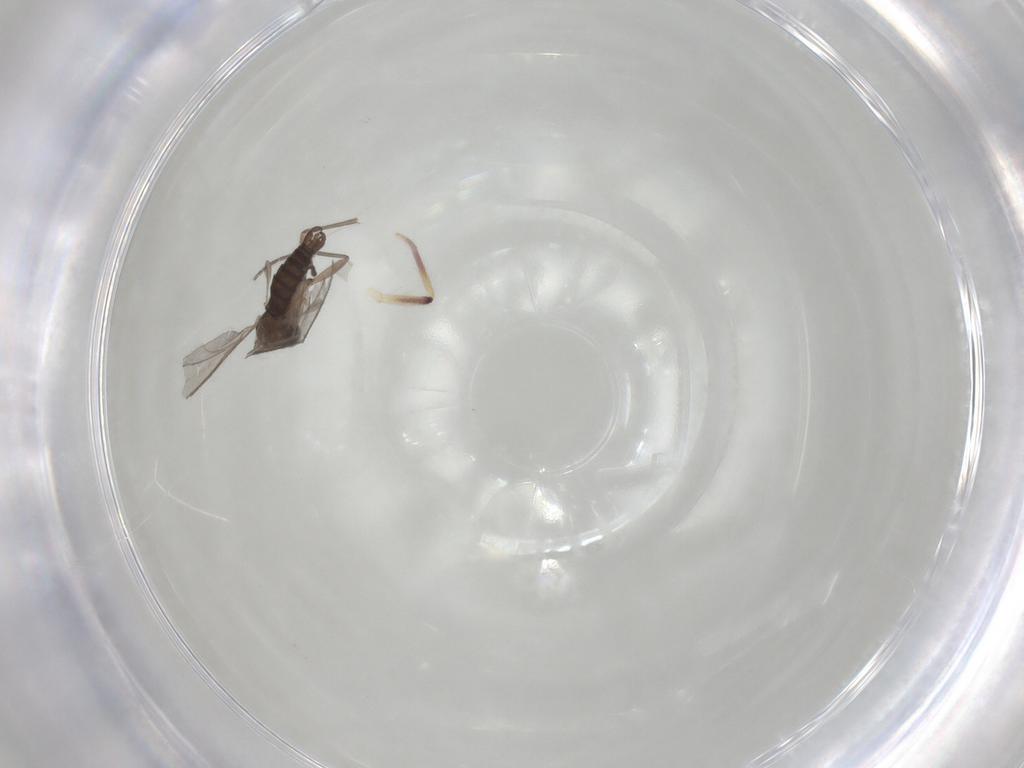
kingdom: Animalia
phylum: Arthropoda
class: Insecta
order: Diptera
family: Sciaridae
